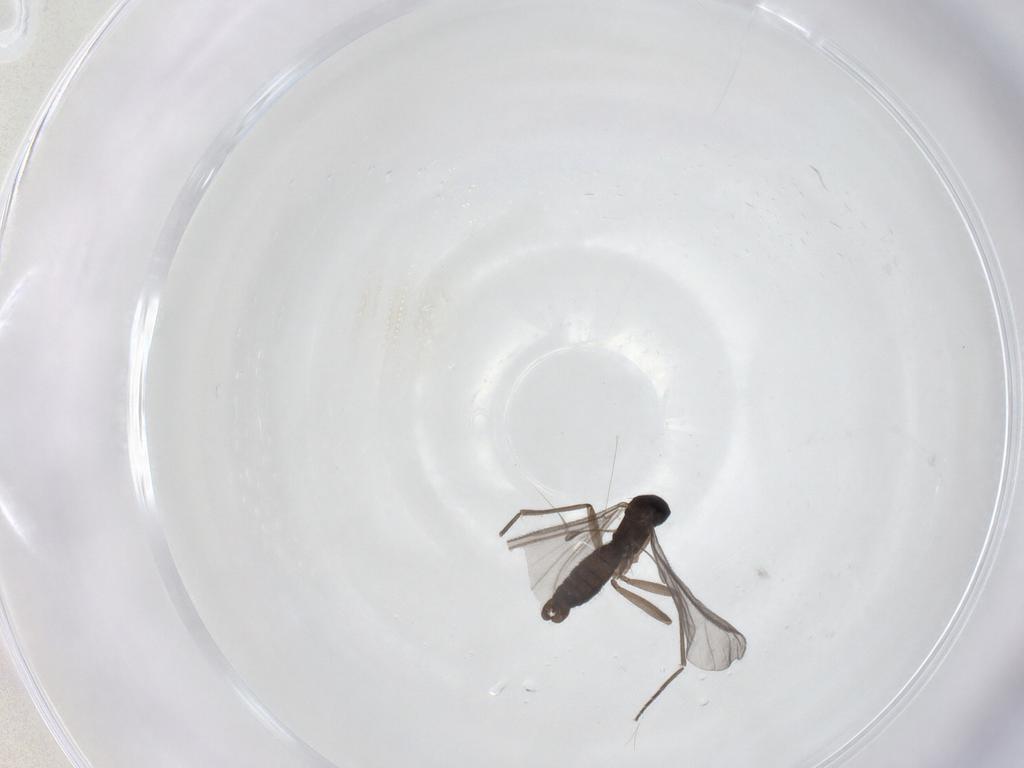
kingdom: Animalia
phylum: Arthropoda
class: Insecta
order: Diptera
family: Sciaridae
